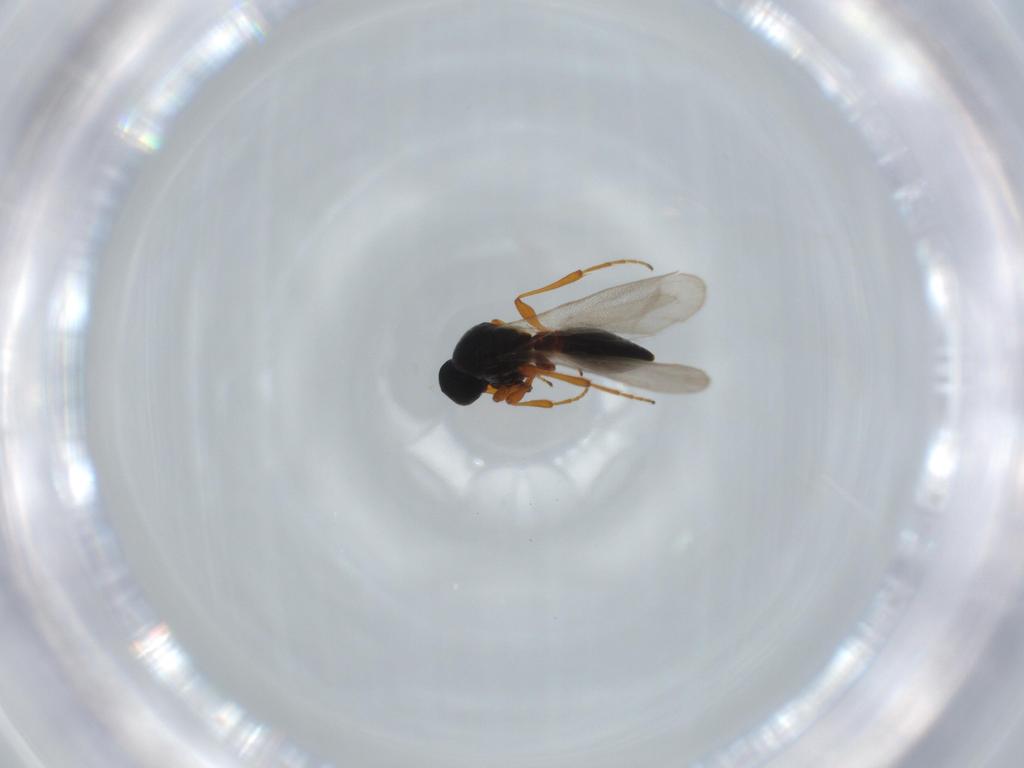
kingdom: Animalia
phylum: Arthropoda
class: Insecta
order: Hymenoptera
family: Platygastridae
